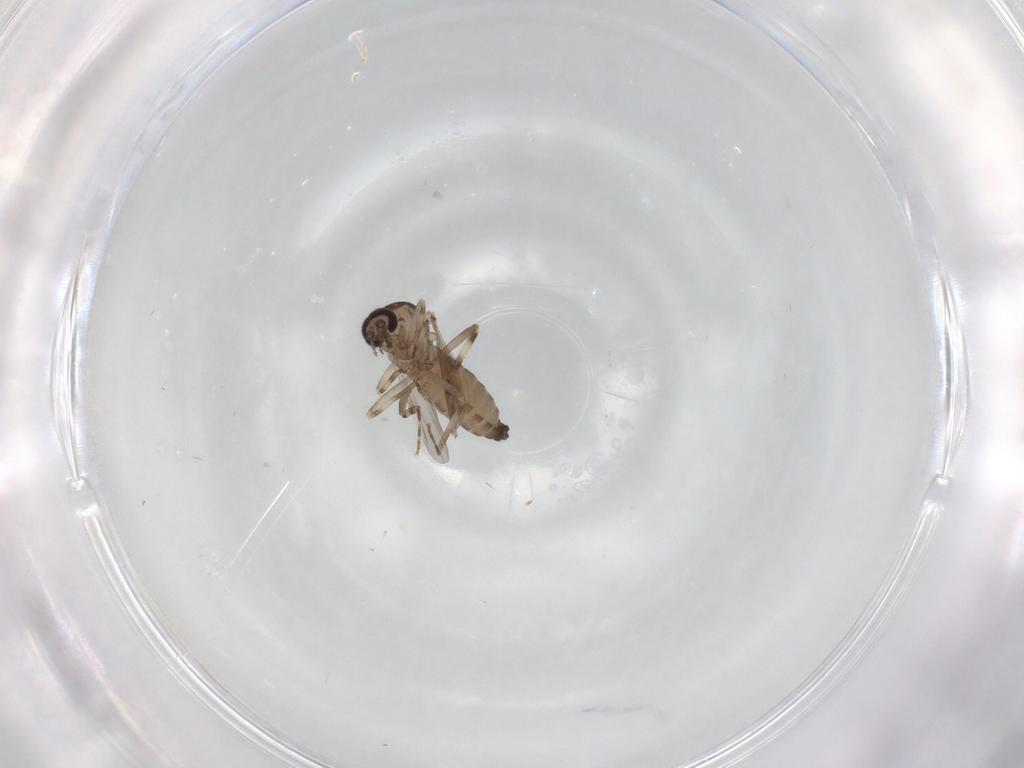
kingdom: Animalia
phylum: Arthropoda
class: Insecta
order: Diptera
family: Ceratopogonidae
